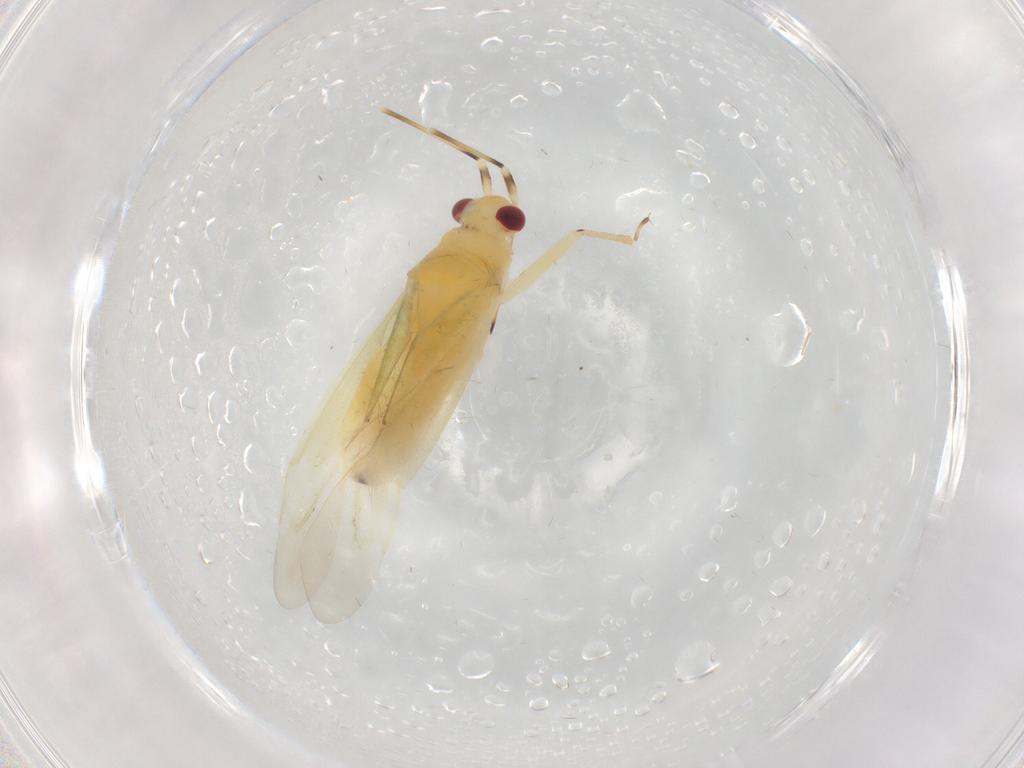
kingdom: Animalia
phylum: Arthropoda
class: Insecta
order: Hemiptera
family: Miridae
